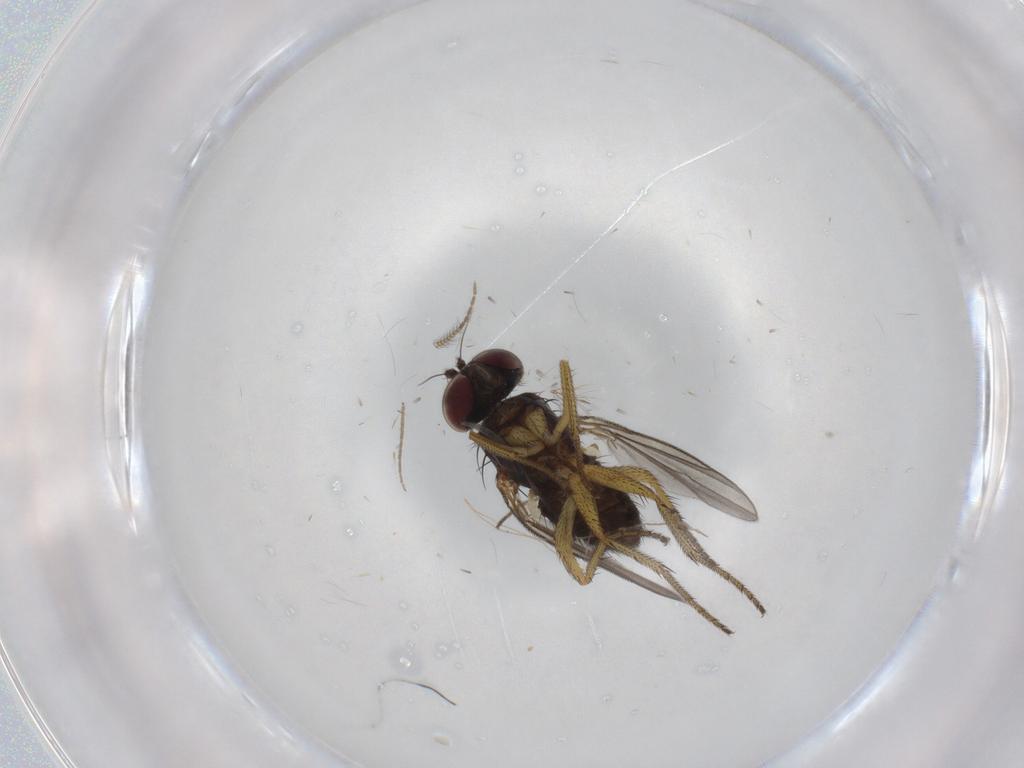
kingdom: Animalia
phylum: Arthropoda
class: Insecta
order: Diptera
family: Sciaridae
